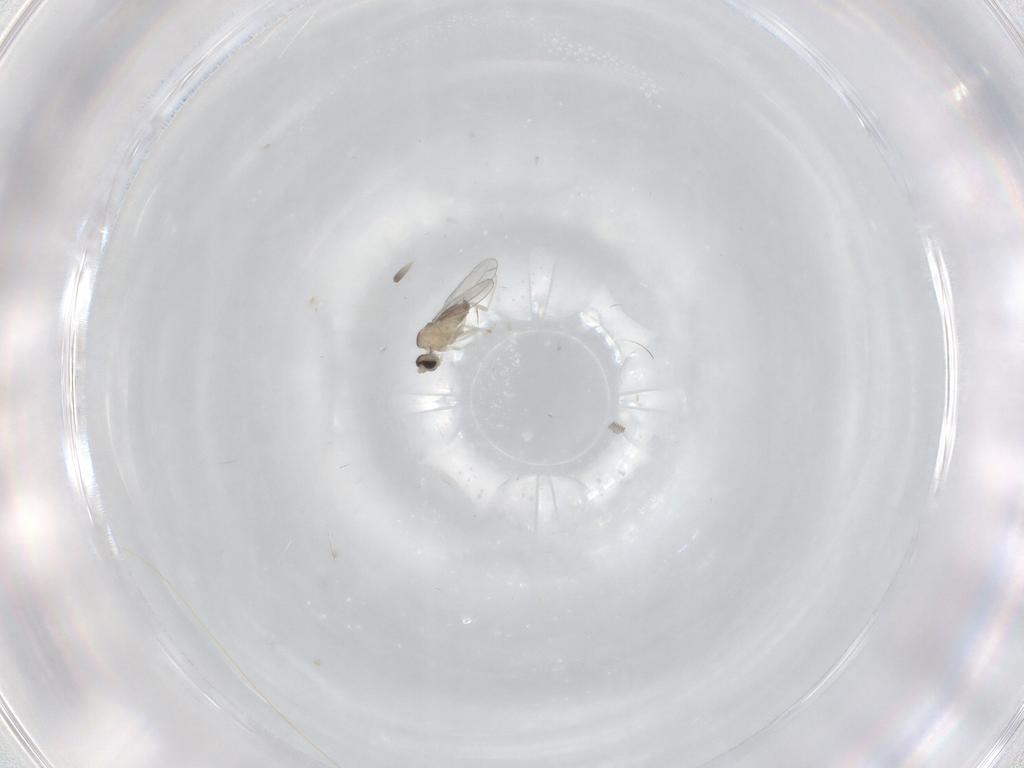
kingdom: Animalia
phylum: Arthropoda
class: Insecta
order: Diptera
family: Cecidomyiidae
